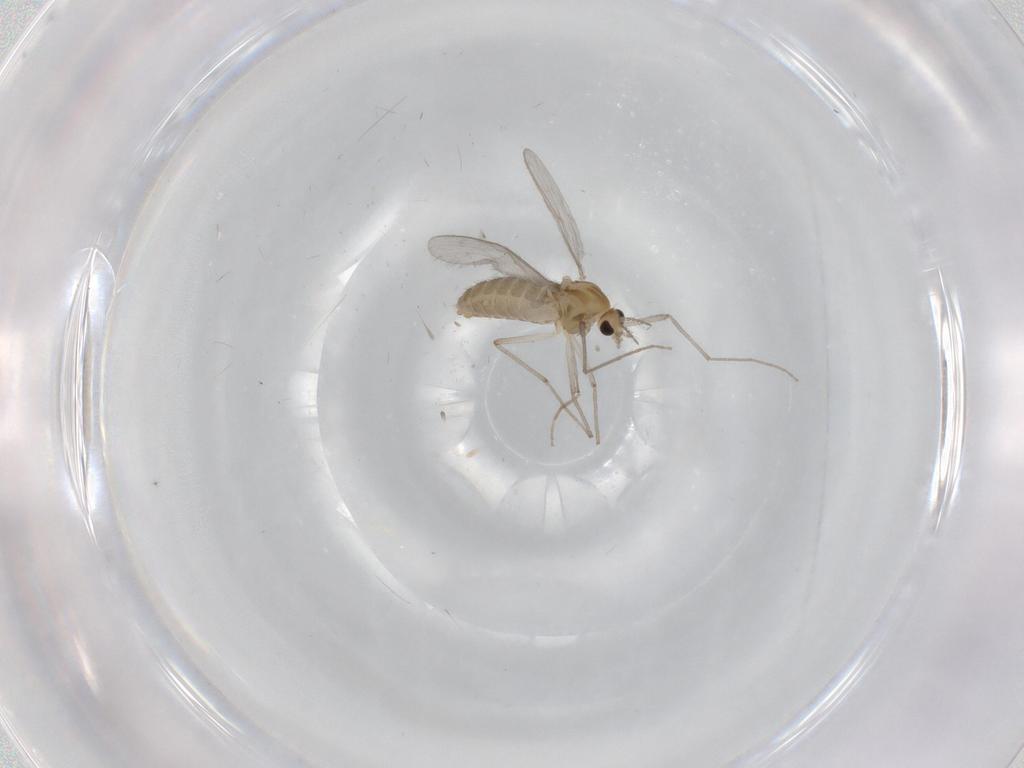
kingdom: Animalia
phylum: Arthropoda
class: Insecta
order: Diptera
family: Chironomidae
